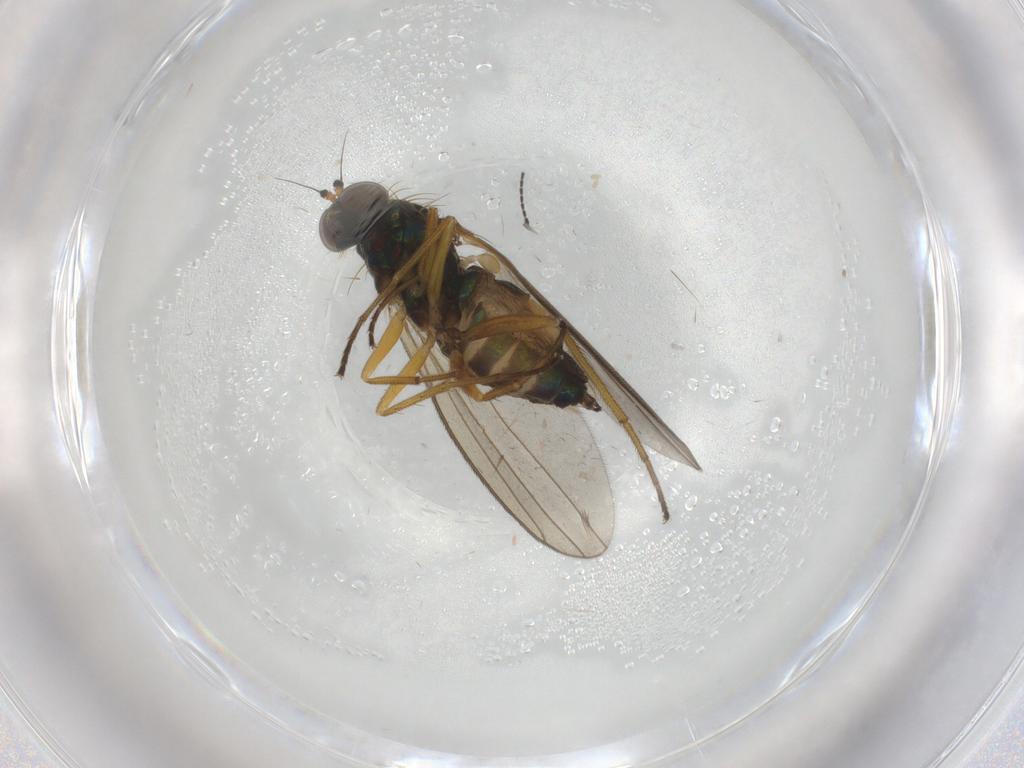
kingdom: Animalia
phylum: Arthropoda
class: Insecta
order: Diptera
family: Dolichopodidae
